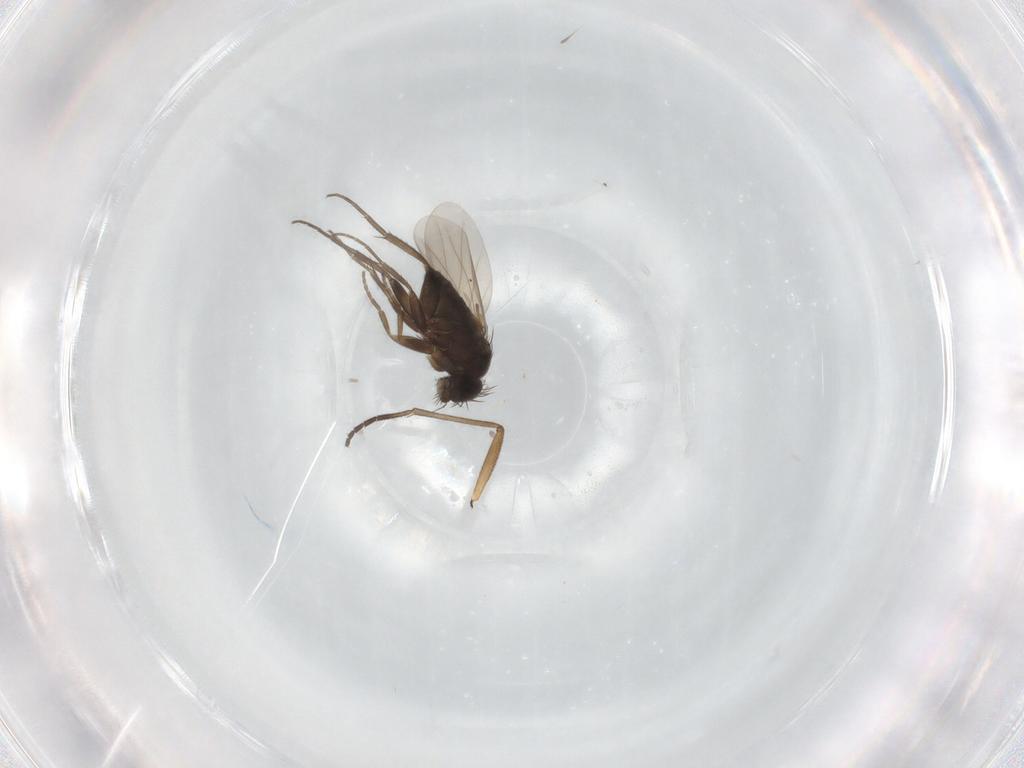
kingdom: Animalia
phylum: Arthropoda
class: Insecta
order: Diptera
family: Phoridae
